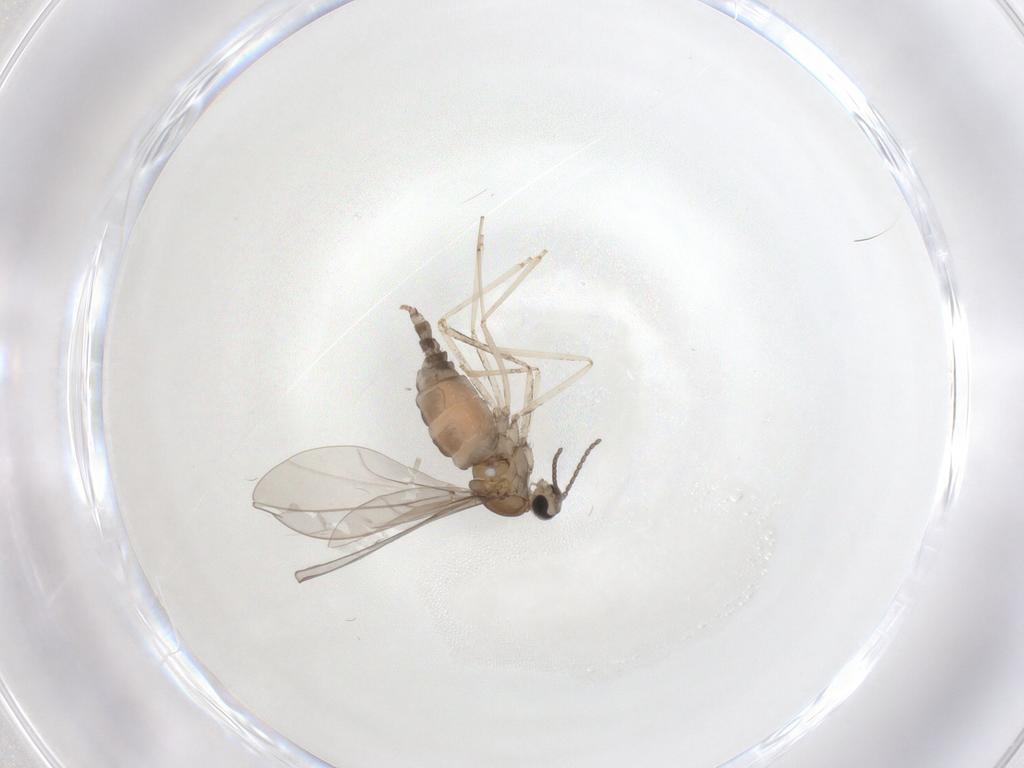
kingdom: Animalia
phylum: Arthropoda
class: Insecta
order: Diptera
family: Cecidomyiidae
